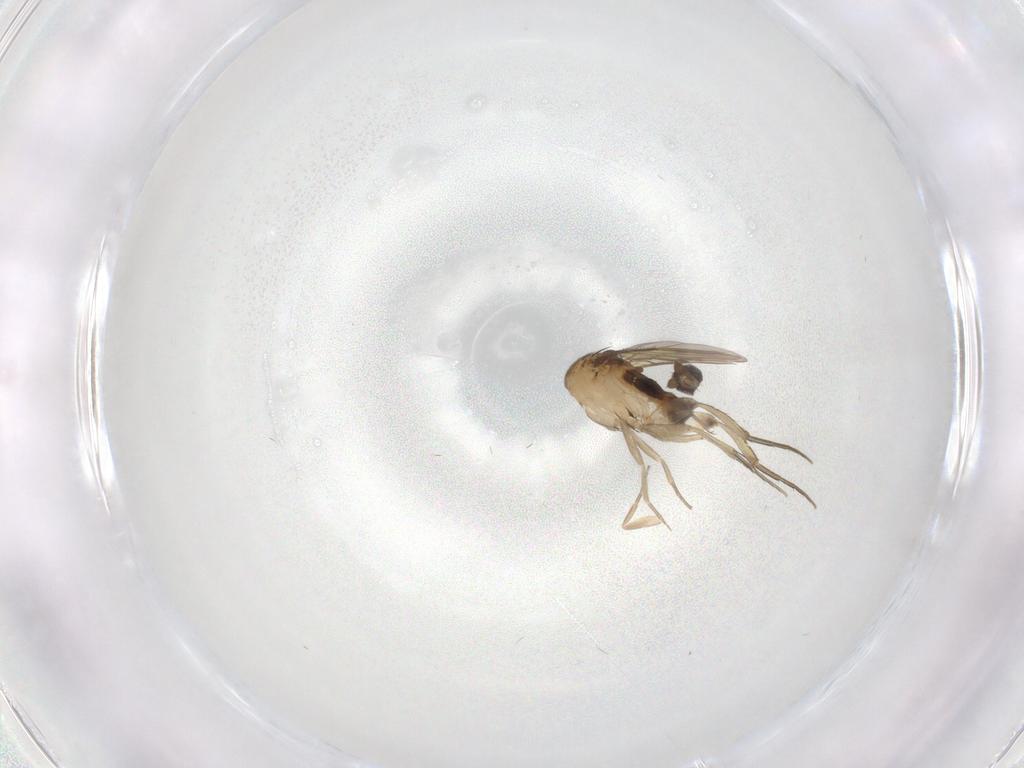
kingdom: Animalia
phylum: Arthropoda
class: Insecta
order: Diptera
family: Phoridae
